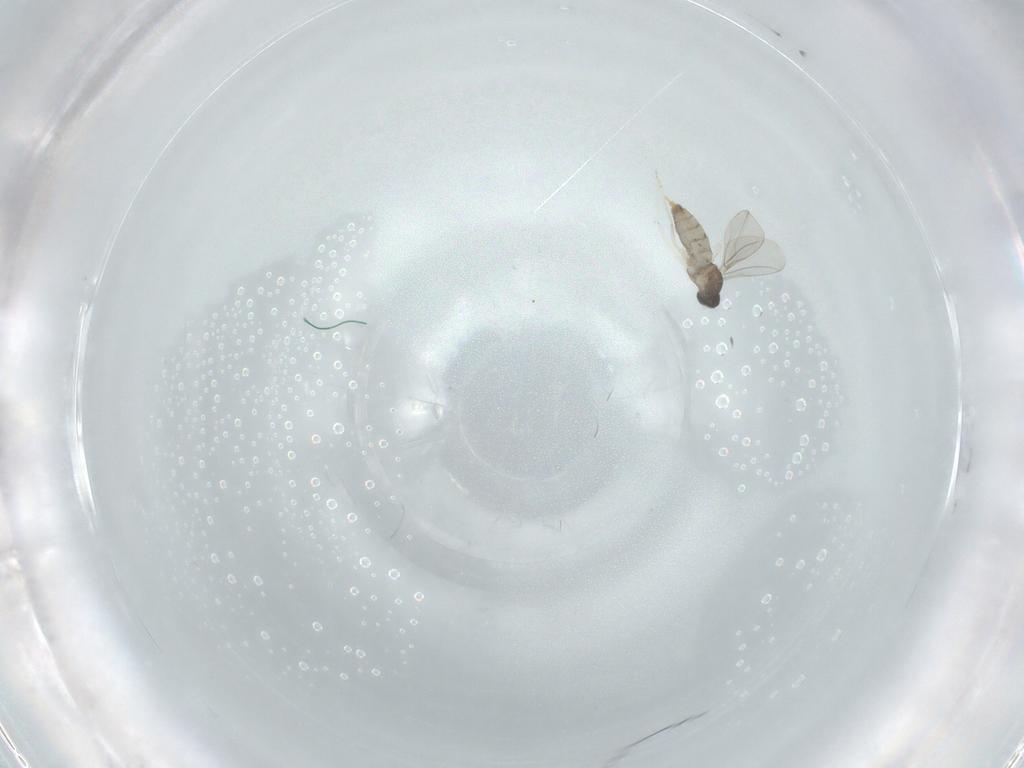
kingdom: Animalia
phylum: Arthropoda
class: Insecta
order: Diptera
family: Cecidomyiidae
